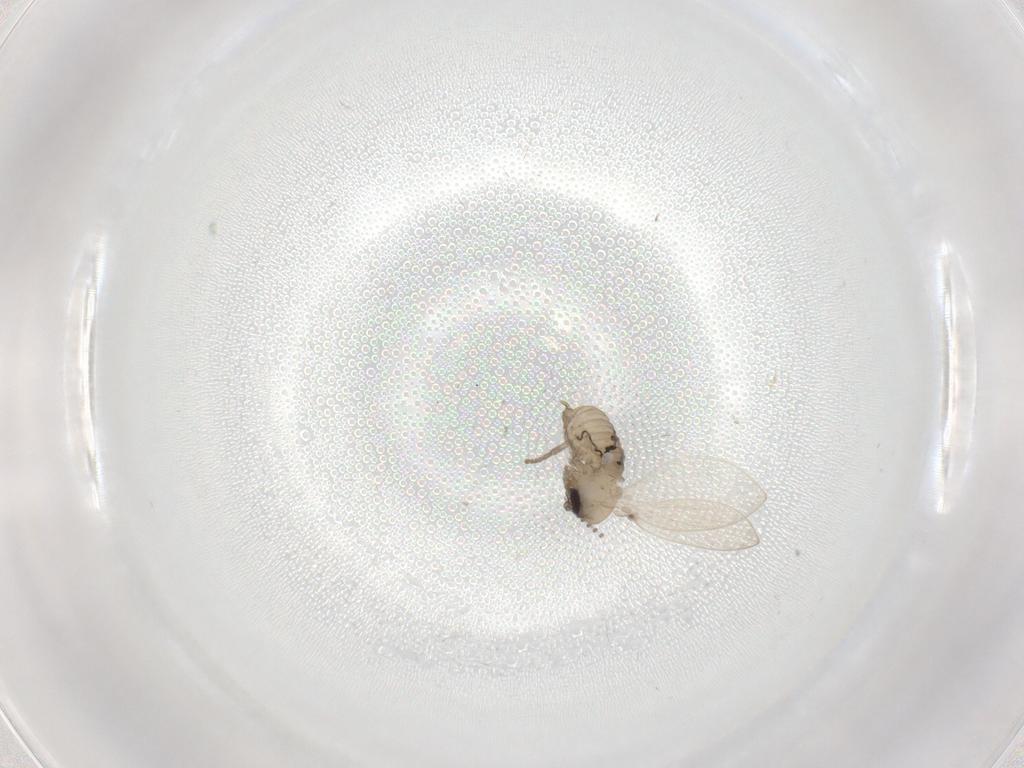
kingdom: Animalia
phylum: Arthropoda
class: Insecta
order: Diptera
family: Psychodidae
